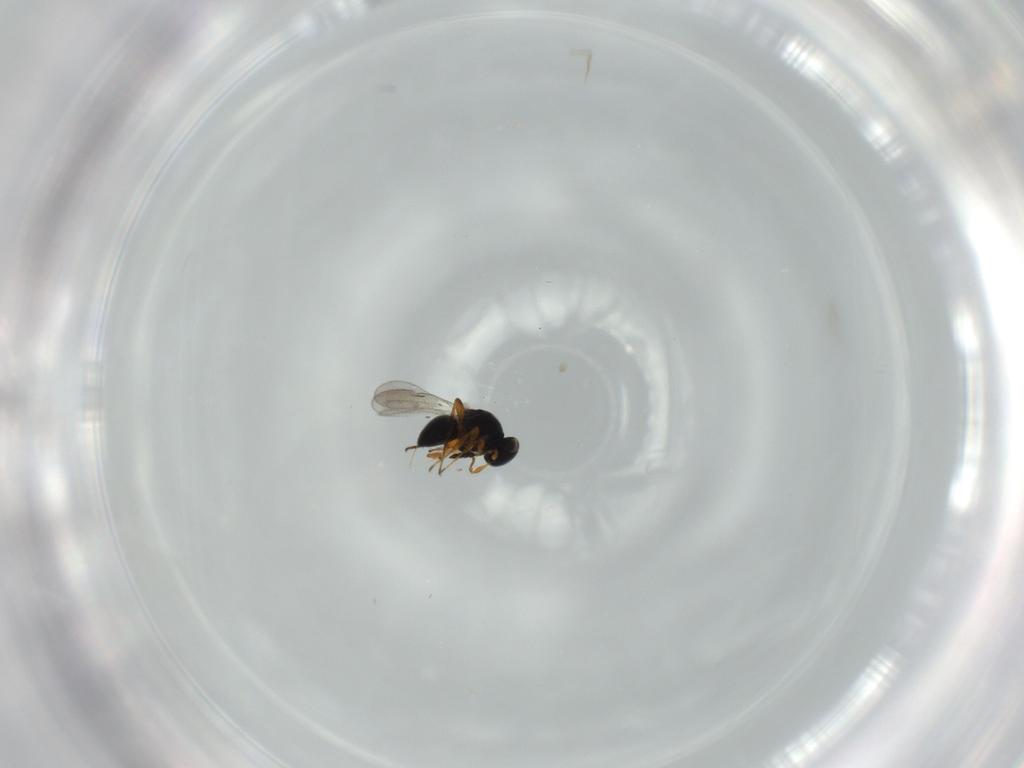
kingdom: Animalia
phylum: Arthropoda
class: Insecta
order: Hymenoptera
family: Platygastridae
